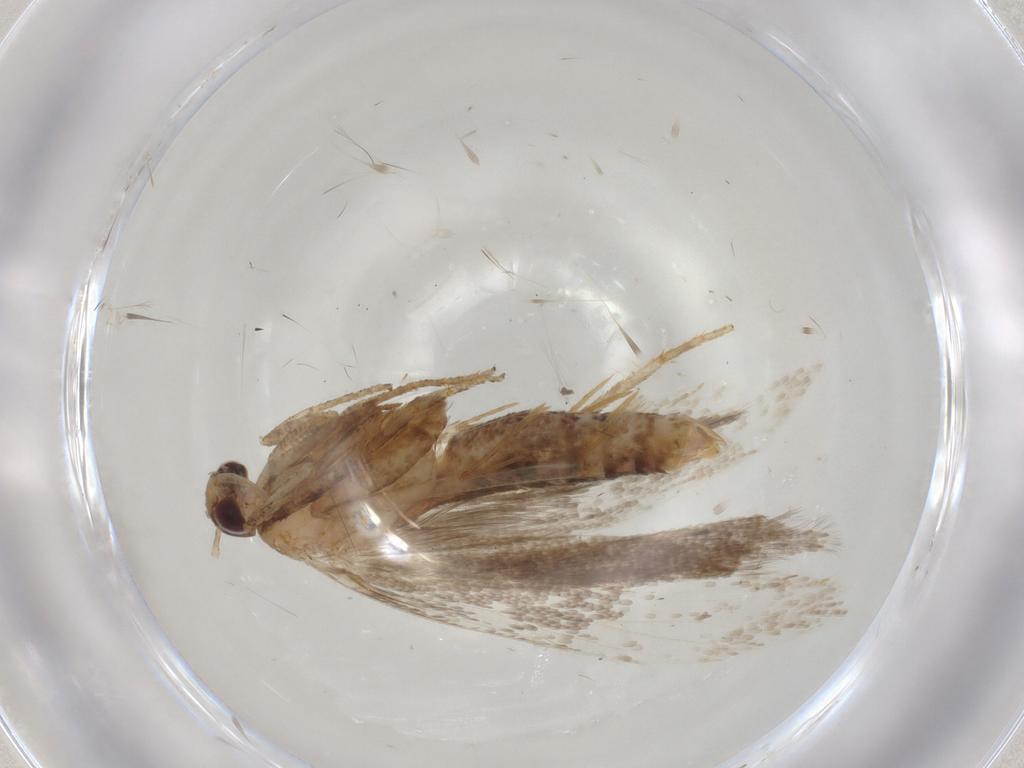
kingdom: Animalia
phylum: Arthropoda
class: Insecta
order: Lepidoptera
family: Gelechiidae
